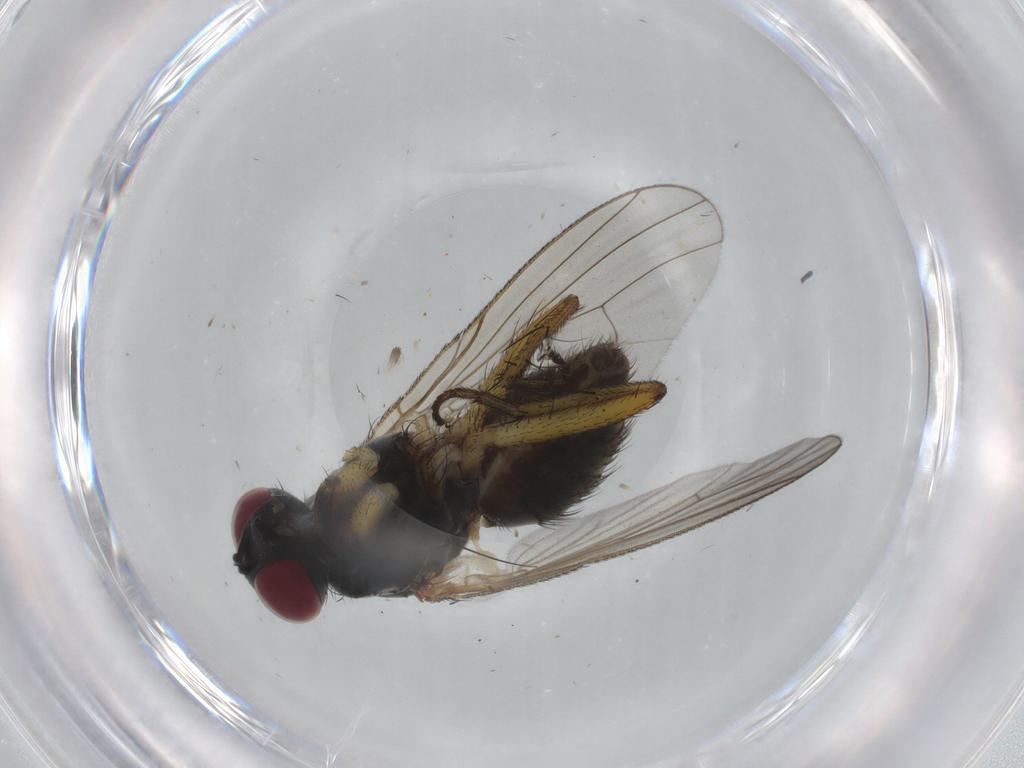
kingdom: Animalia
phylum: Arthropoda
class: Insecta
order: Diptera
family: Muscidae
